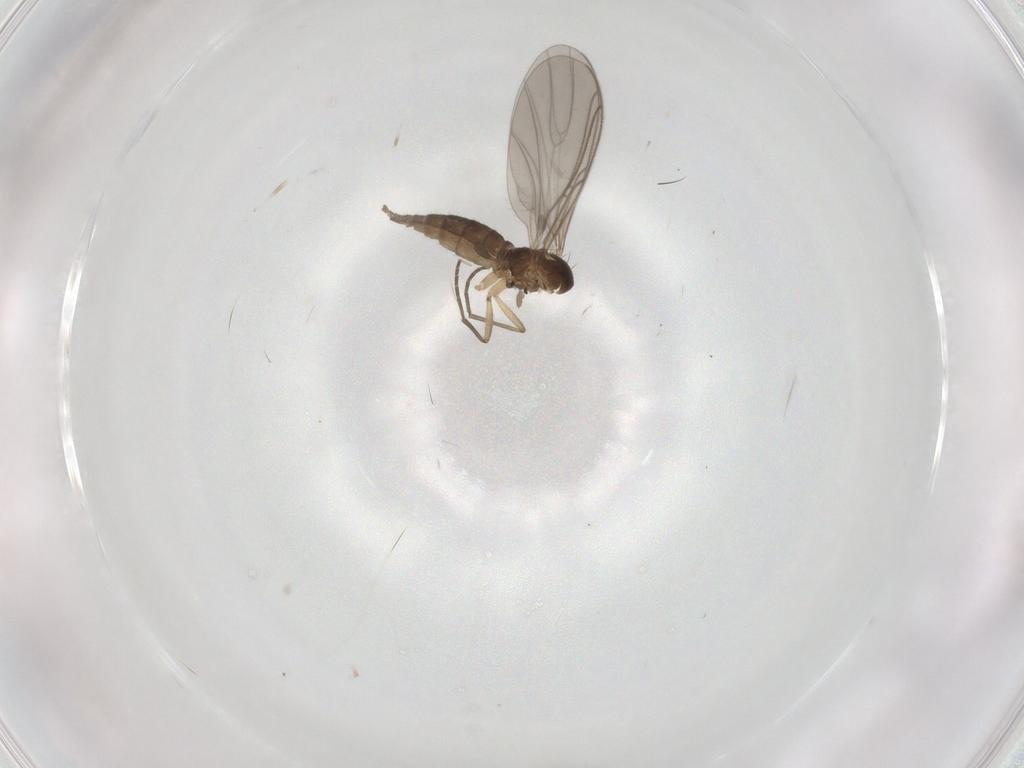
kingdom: Animalia
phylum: Arthropoda
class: Insecta
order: Diptera
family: Sciaridae
